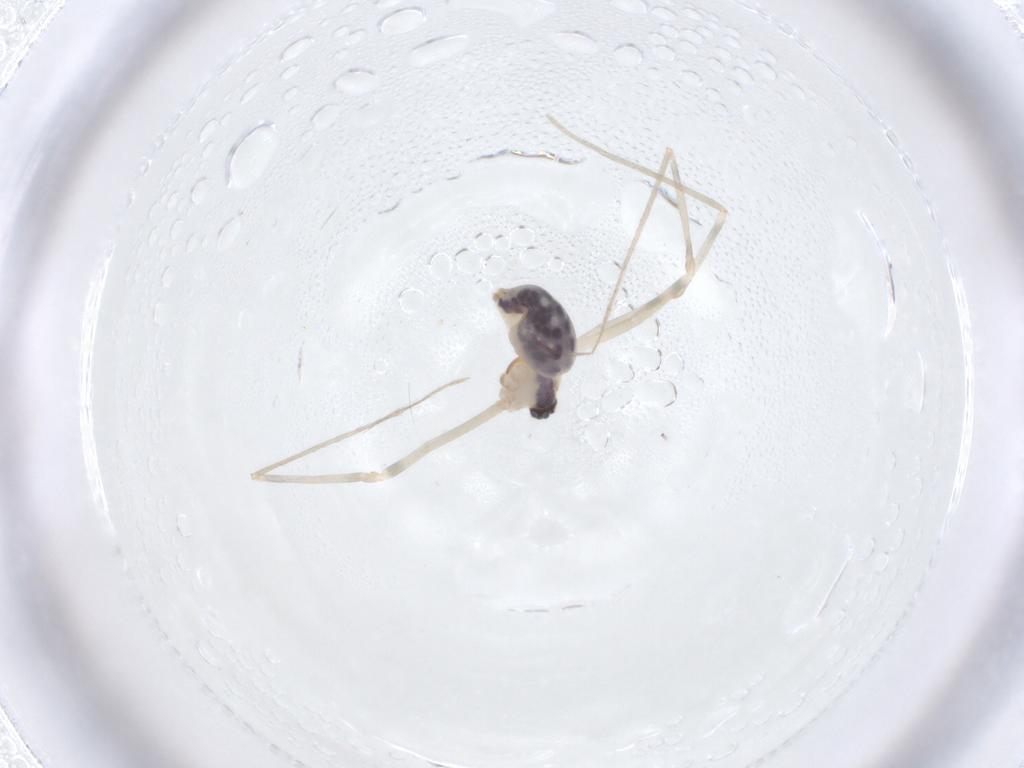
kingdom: Animalia
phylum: Arthropoda
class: Arachnida
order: Araneae
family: Pholcidae
